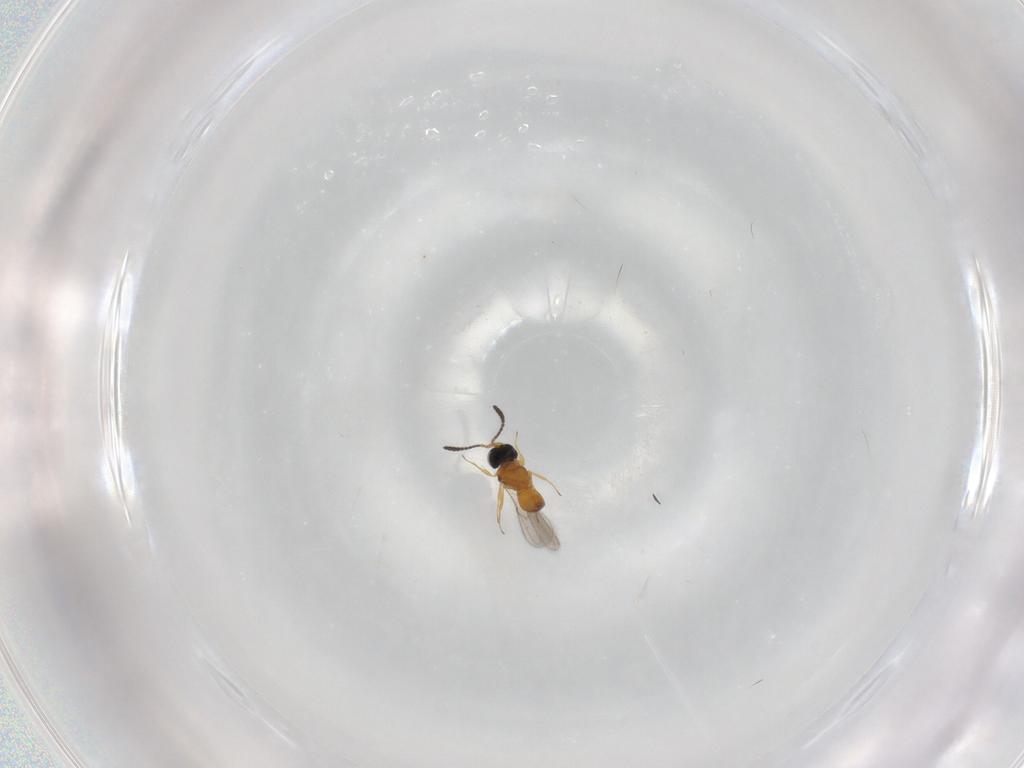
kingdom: Animalia
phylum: Arthropoda
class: Insecta
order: Hymenoptera
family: Scelionidae
